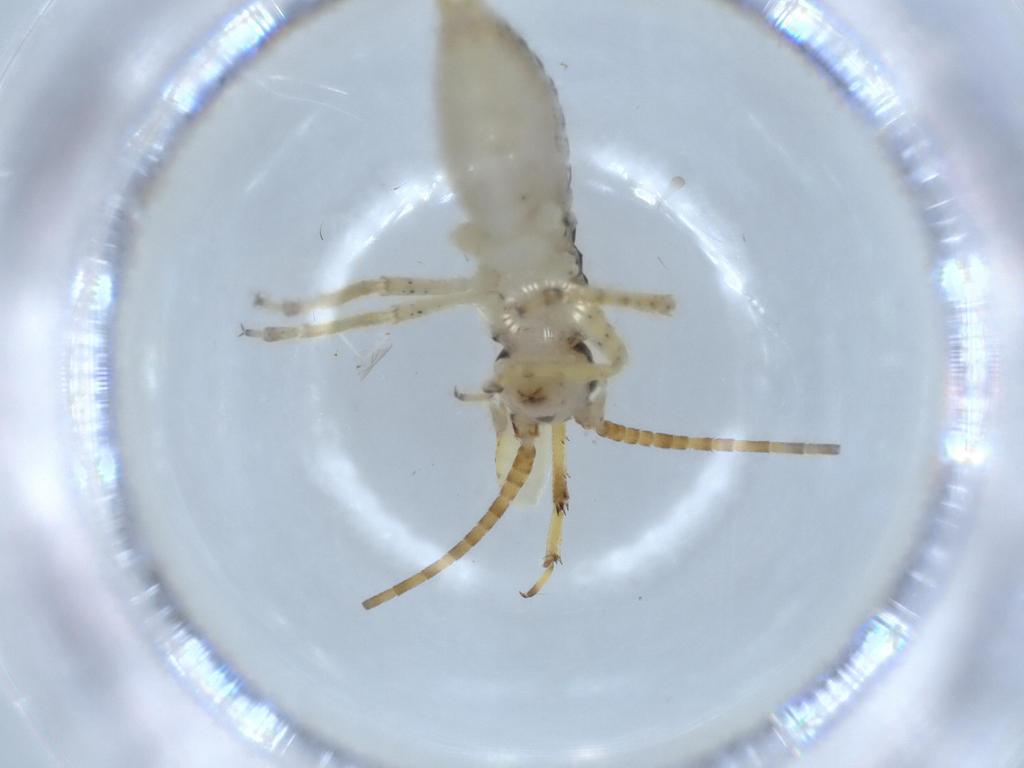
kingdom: Animalia
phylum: Arthropoda
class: Insecta
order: Orthoptera
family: Gryllidae
